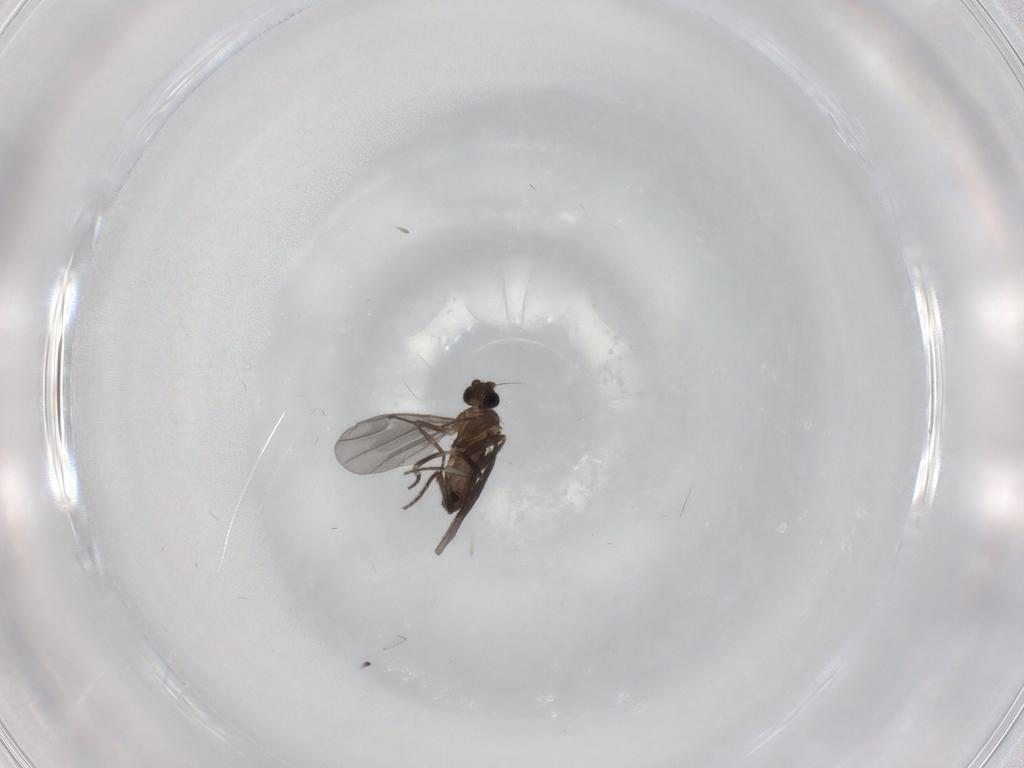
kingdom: Animalia
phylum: Arthropoda
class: Insecta
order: Diptera
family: Phoridae
